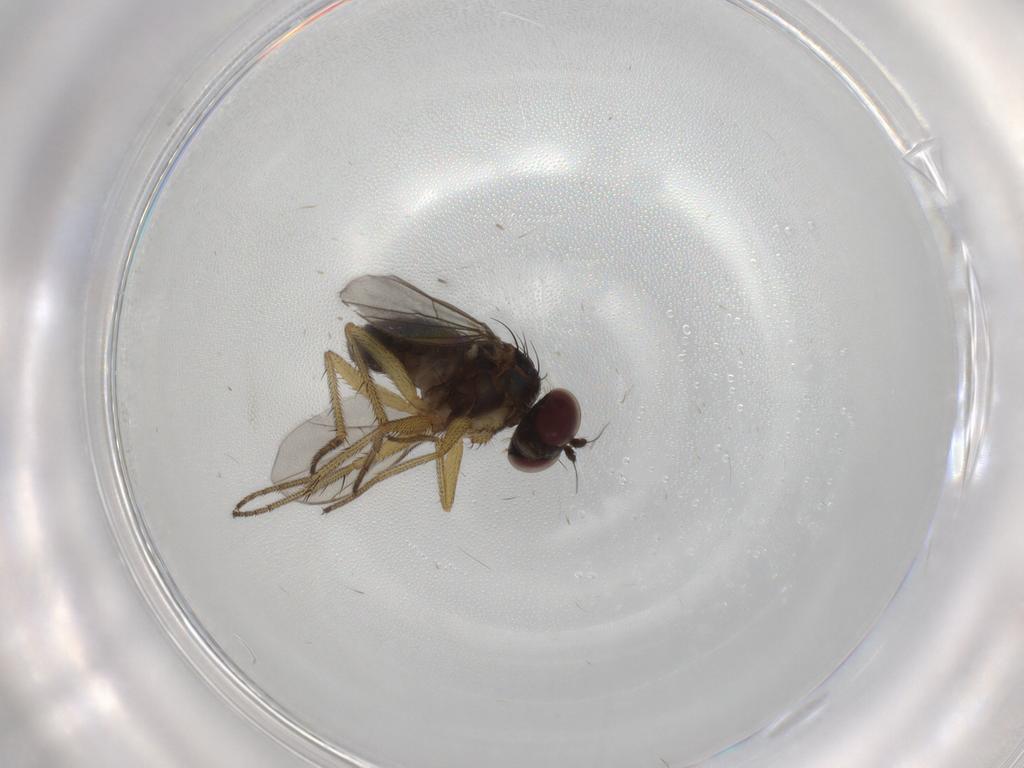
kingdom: Animalia
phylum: Arthropoda
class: Insecta
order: Diptera
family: Dolichopodidae
